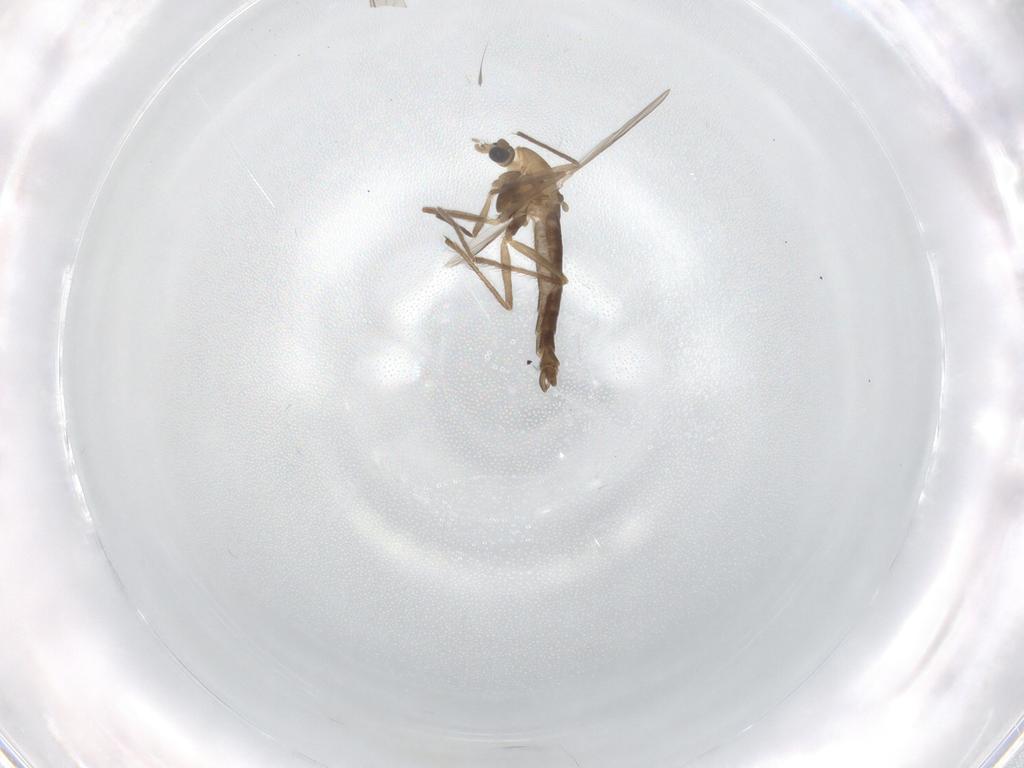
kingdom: Animalia
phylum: Arthropoda
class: Insecta
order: Diptera
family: Chironomidae
